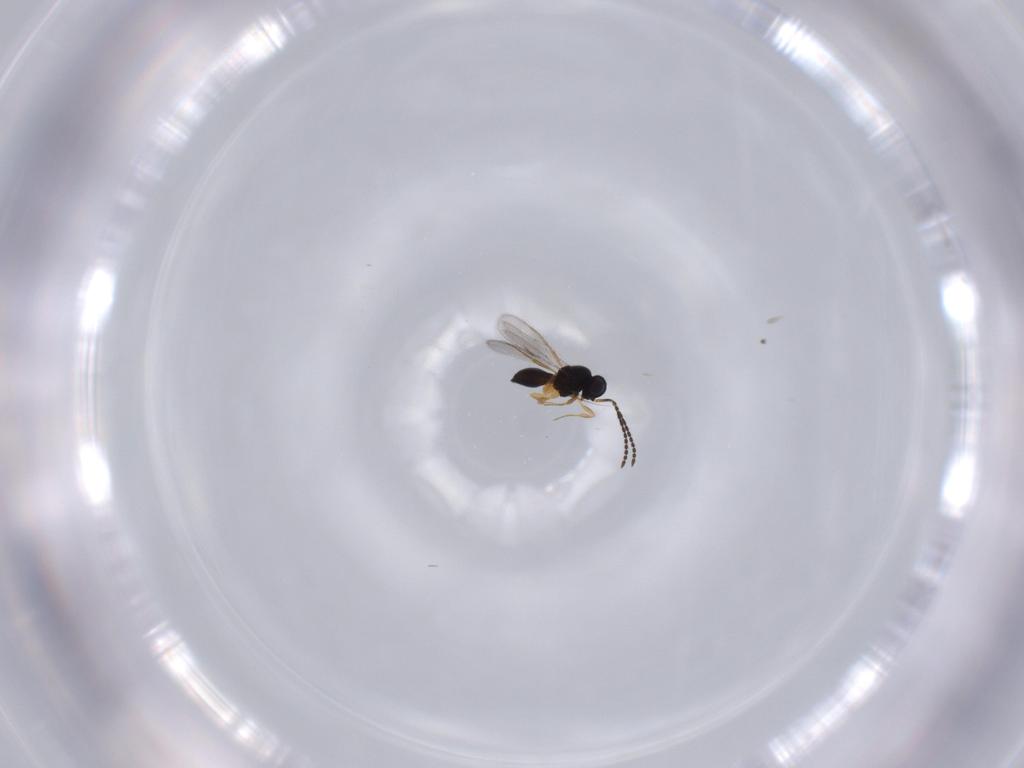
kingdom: Animalia
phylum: Arthropoda
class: Insecta
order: Hymenoptera
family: Scelionidae
